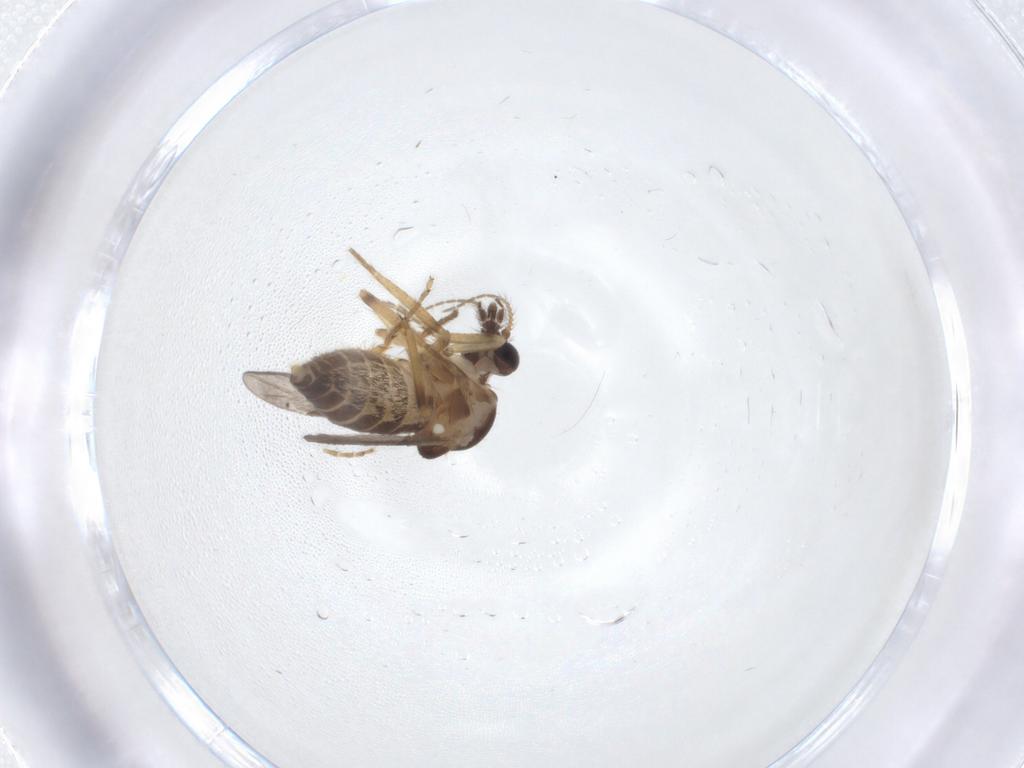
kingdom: Animalia
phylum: Arthropoda
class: Insecta
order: Diptera
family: Ceratopogonidae
